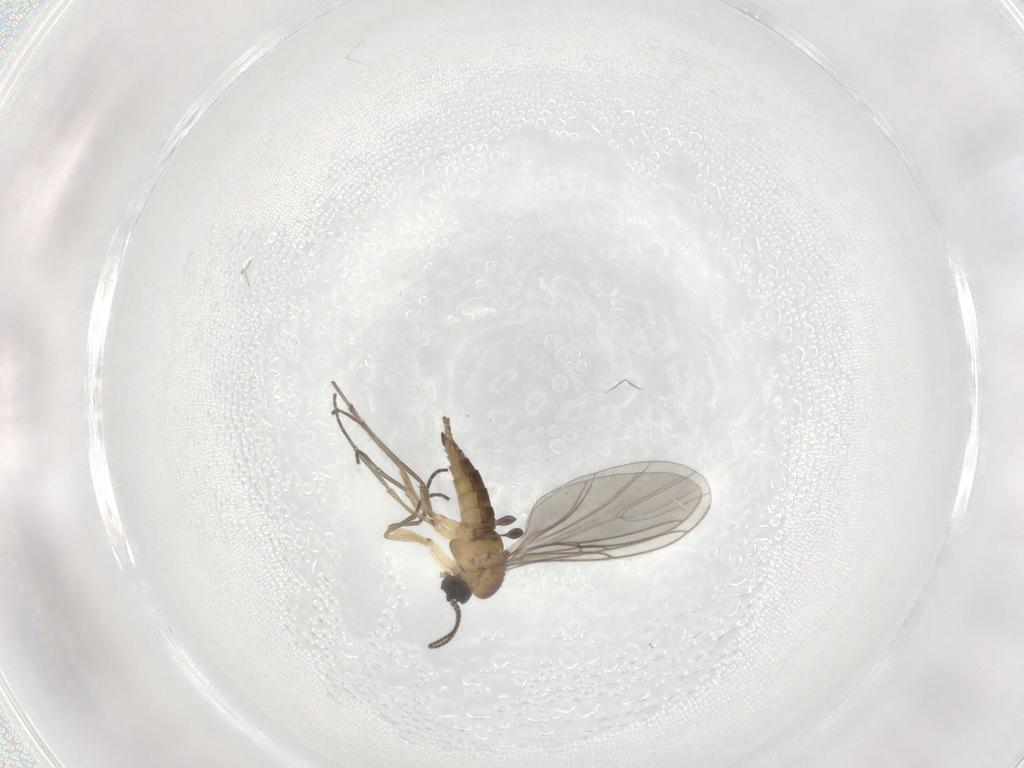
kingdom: Animalia
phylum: Arthropoda
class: Insecta
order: Diptera
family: Sciaridae
